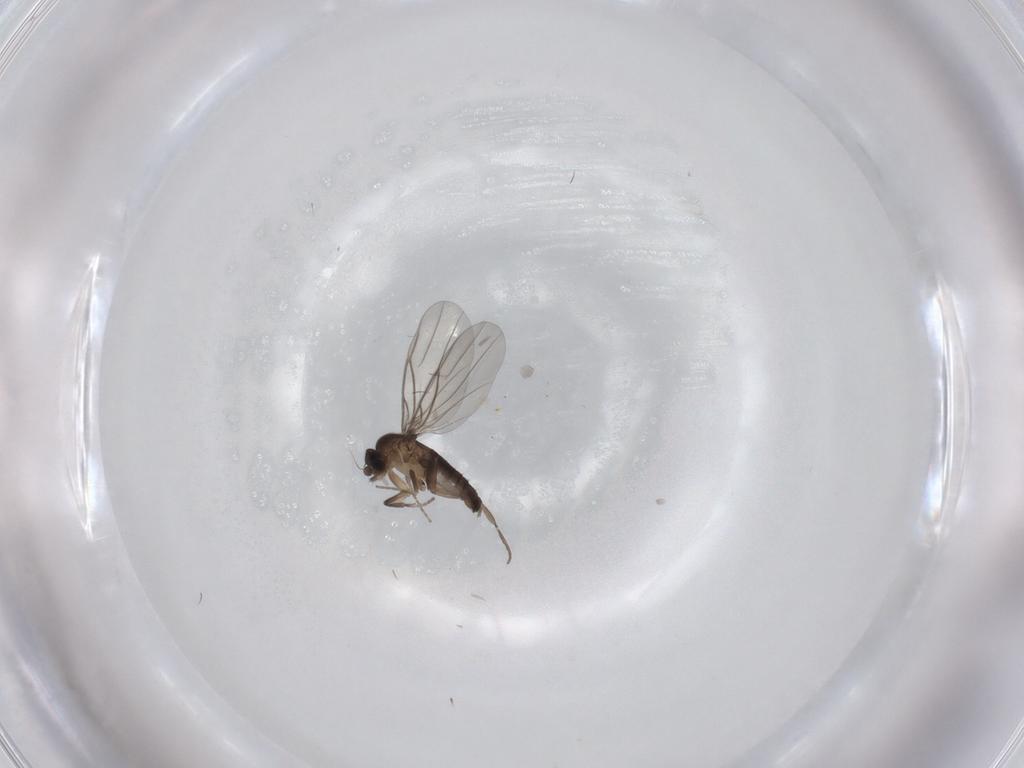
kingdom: Animalia
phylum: Arthropoda
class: Insecta
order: Diptera
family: Phoridae
